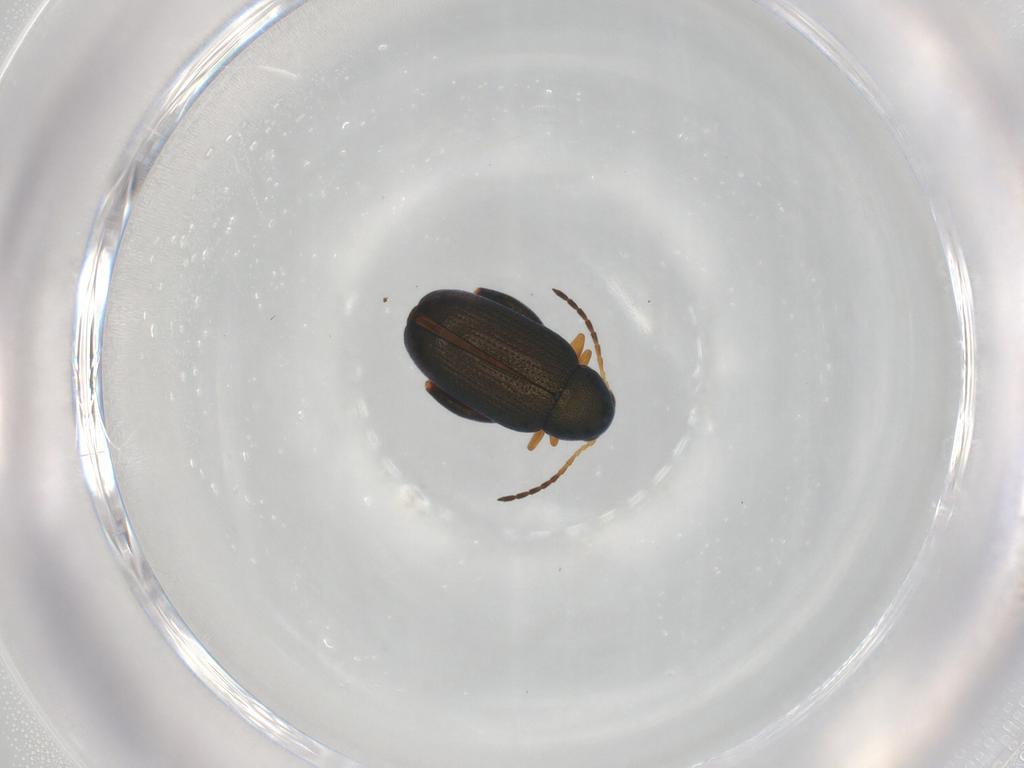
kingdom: Animalia
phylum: Arthropoda
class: Insecta
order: Coleoptera
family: Chrysomelidae
